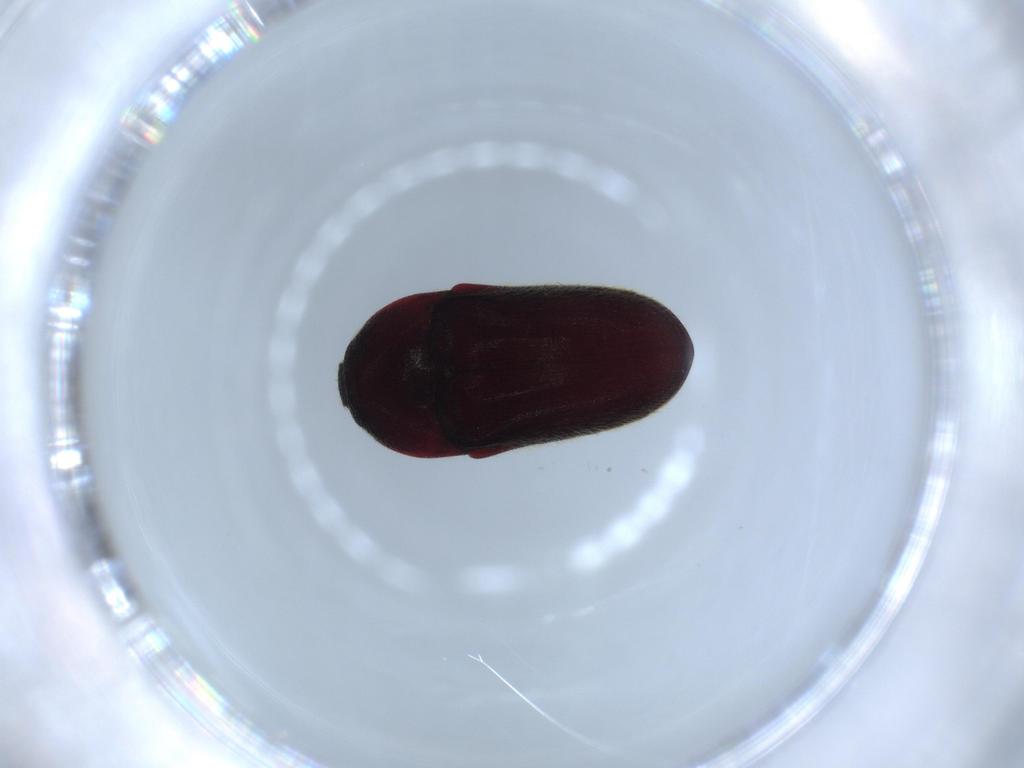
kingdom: Animalia
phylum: Arthropoda
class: Insecta
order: Coleoptera
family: Throscidae
